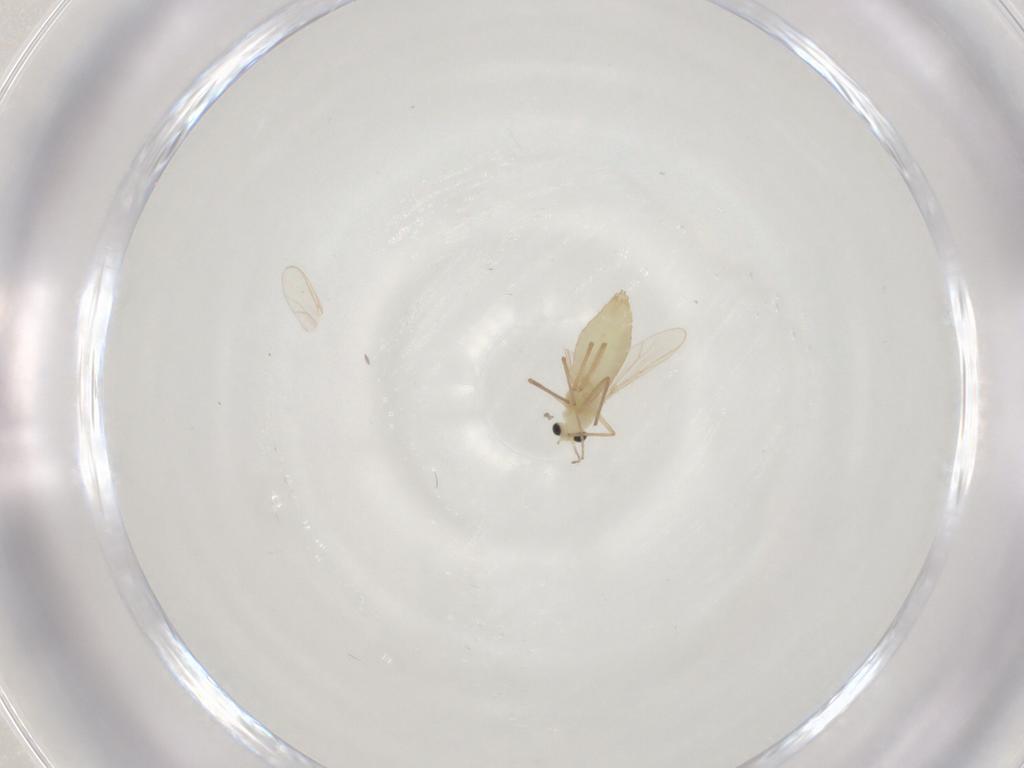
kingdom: Animalia
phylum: Arthropoda
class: Insecta
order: Diptera
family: Chironomidae
